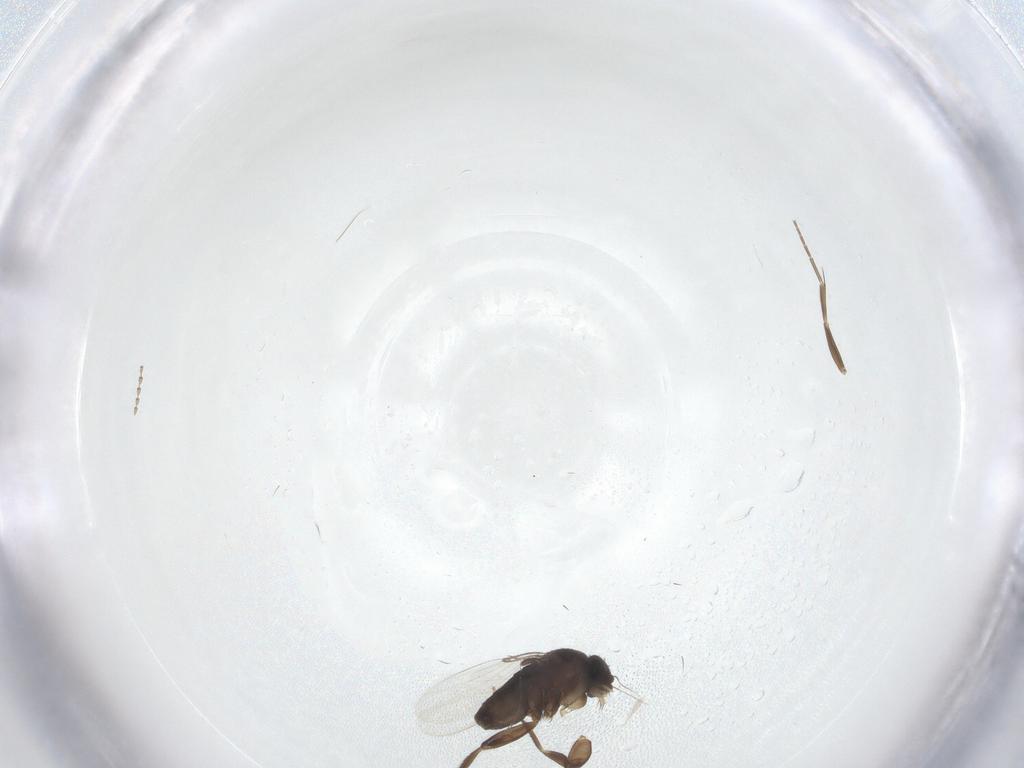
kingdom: Animalia
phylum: Arthropoda
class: Insecta
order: Diptera
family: Phoridae
